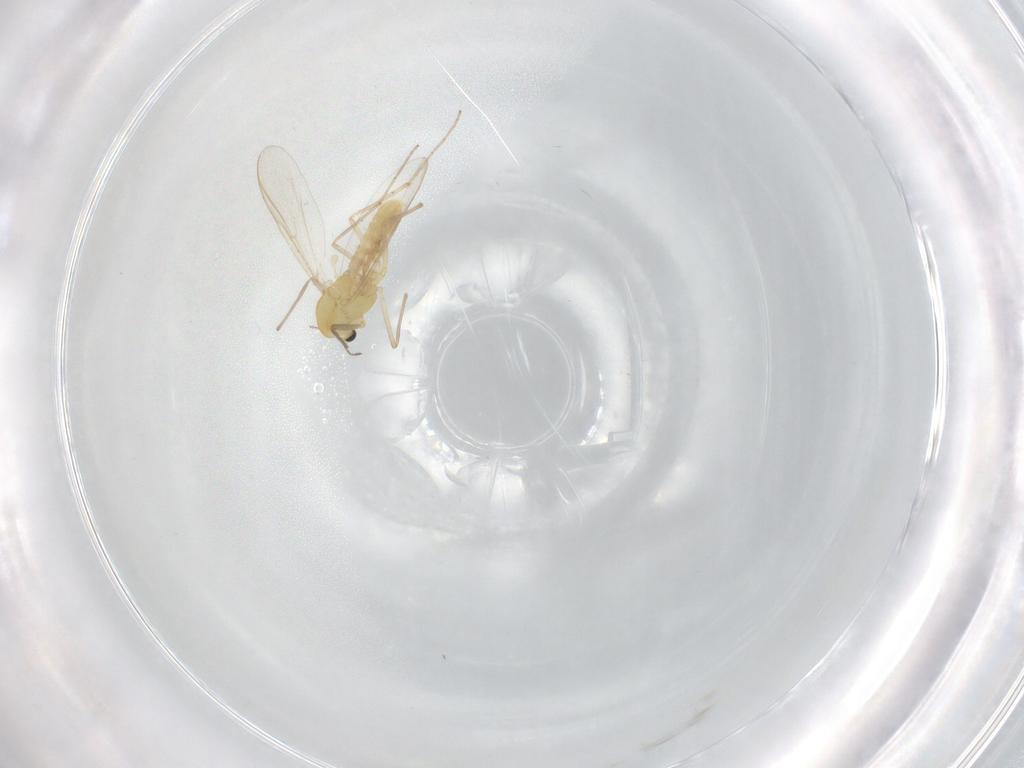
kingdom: Animalia
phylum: Arthropoda
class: Insecta
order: Diptera
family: Chironomidae
